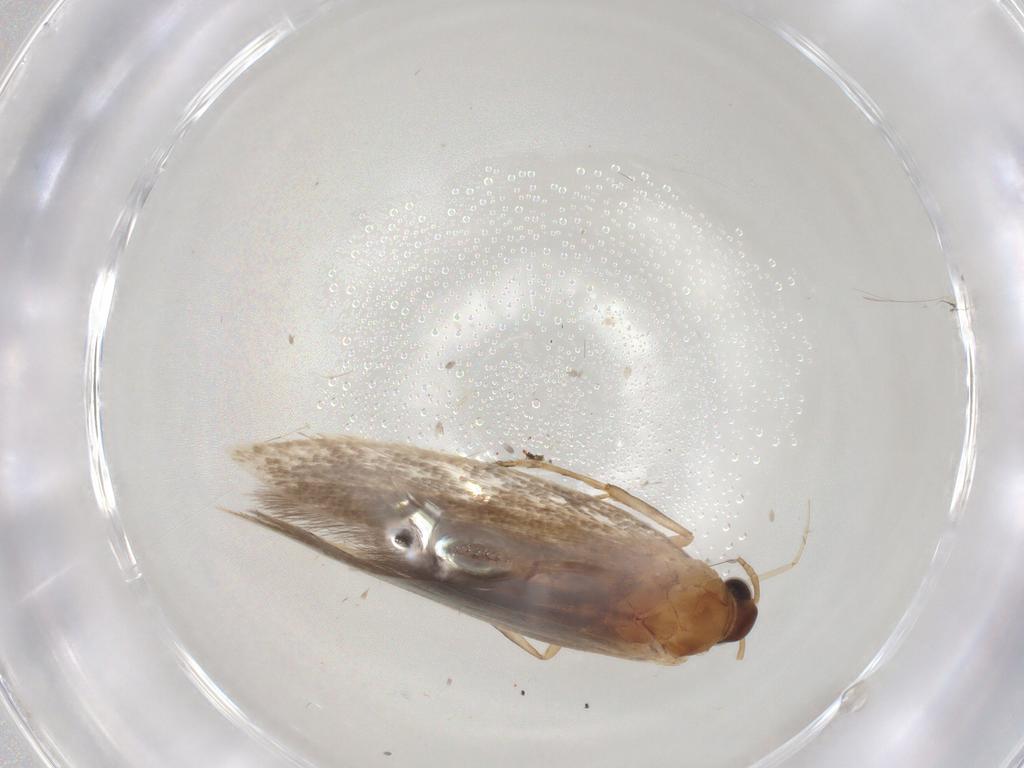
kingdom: Animalia
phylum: Arthropoda
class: Insecta
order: Lepidoptera
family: Oecophoridae
